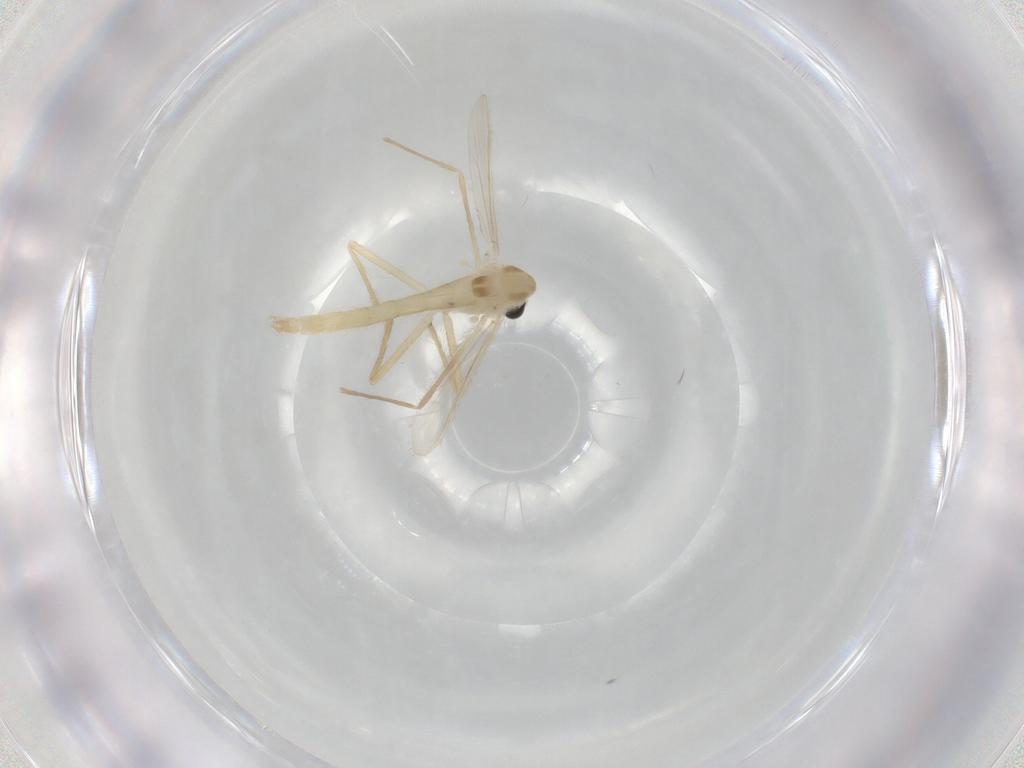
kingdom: Animalia
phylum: Arthropoda
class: Insecta
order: Diptera
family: Chironomidae
